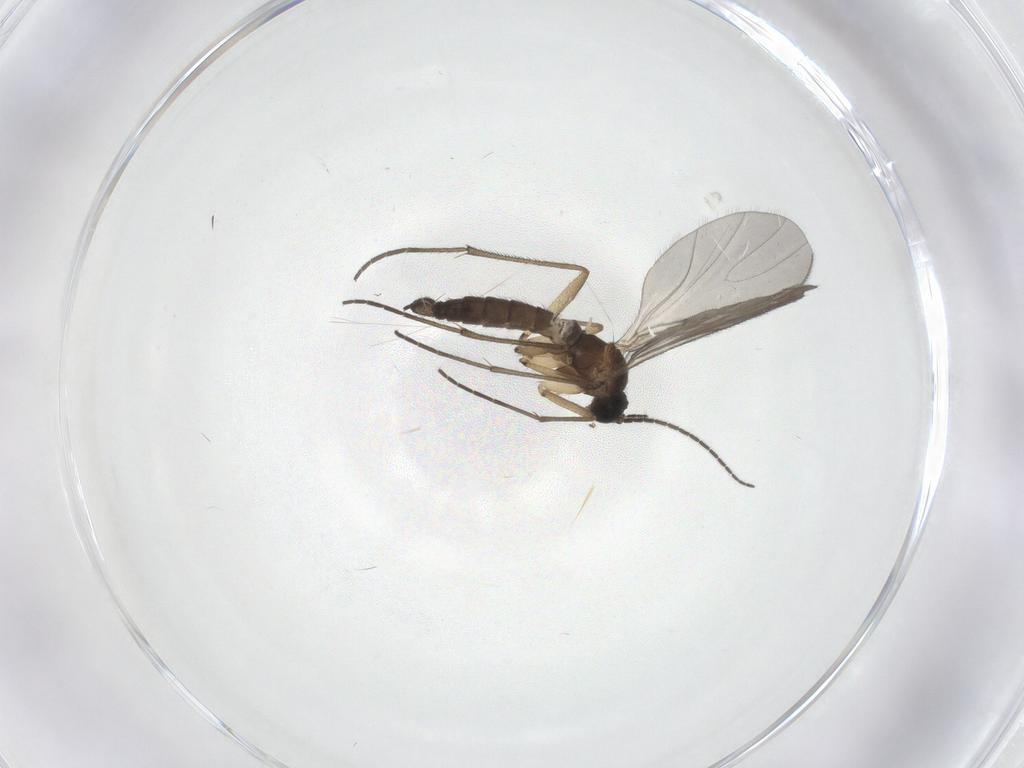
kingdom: Animalia
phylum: Arthropoda
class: Insecta
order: Diptera
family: Sciaridae
